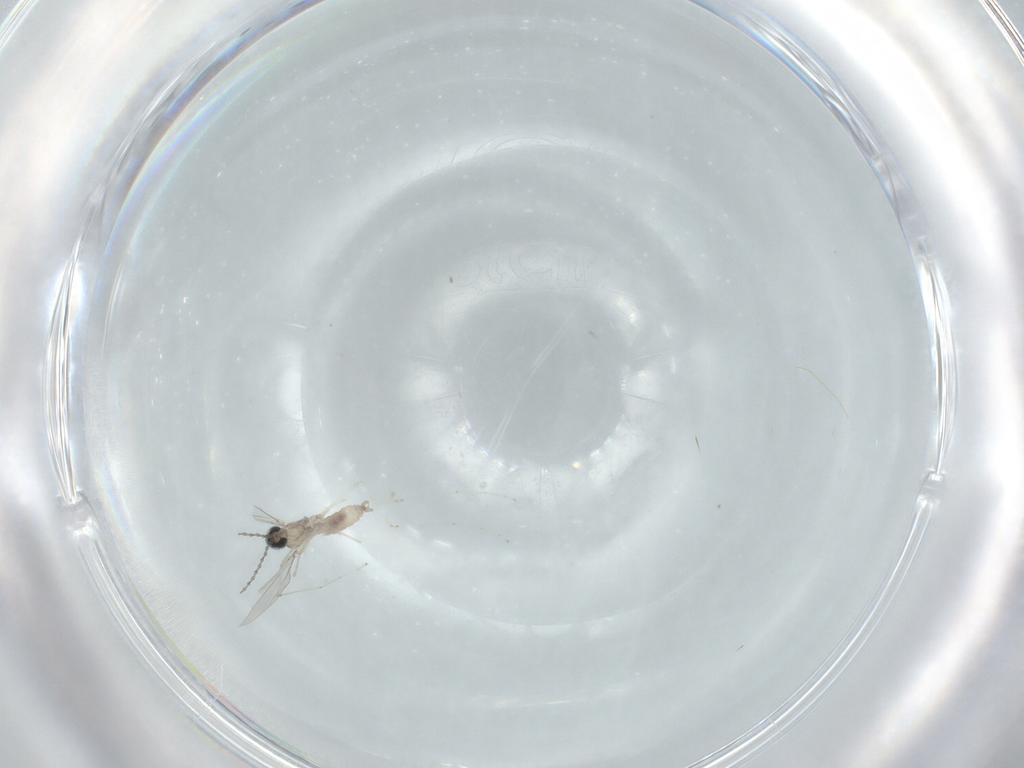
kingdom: Animalia
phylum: Arthropoda
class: Insecta
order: Diptera
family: Cecidomyiidae
